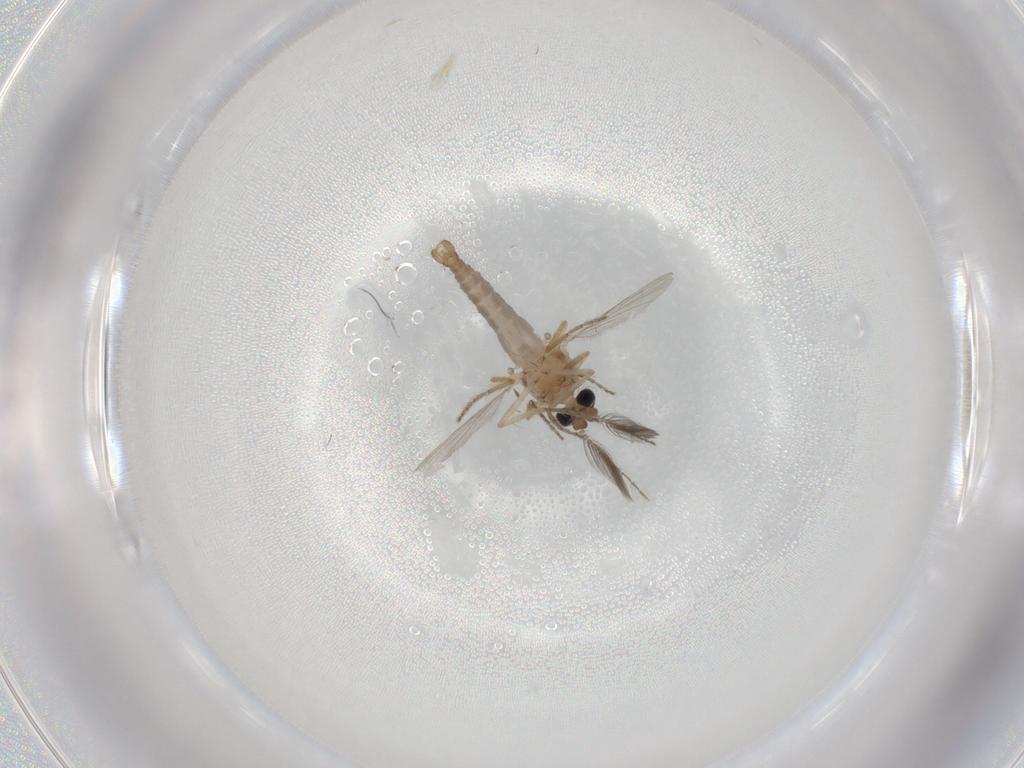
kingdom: Animalia
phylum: Arthropoda
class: Insecta
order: Diptera
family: Ceratopogonidae
